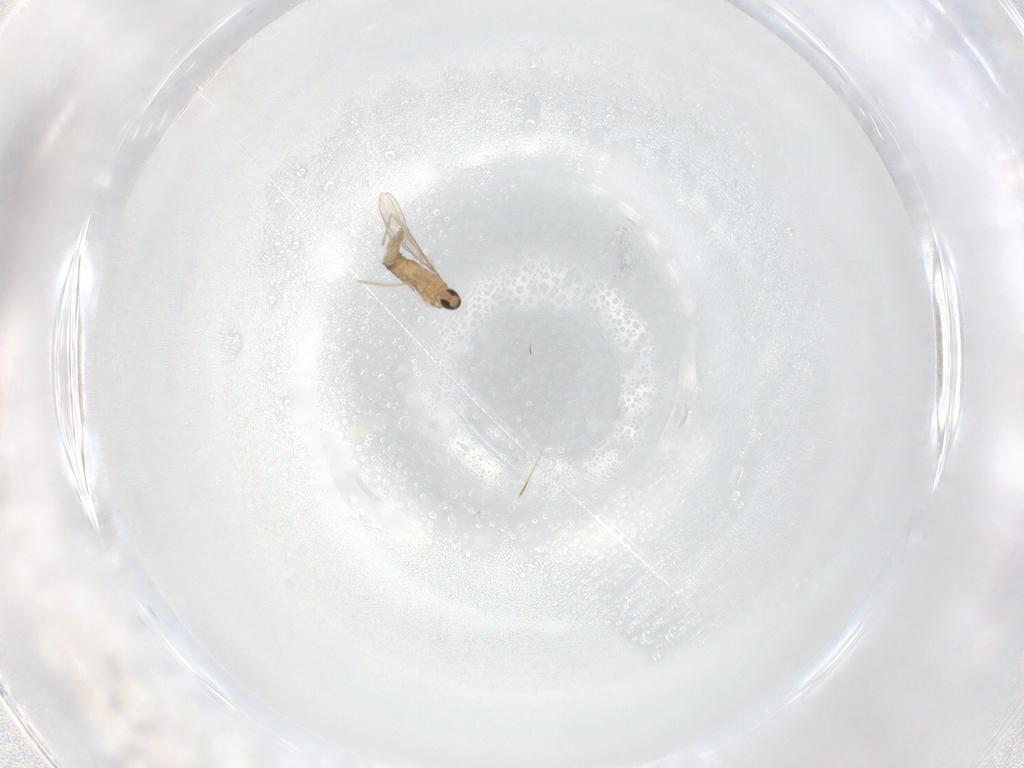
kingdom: Animalia
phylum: Arthropoda
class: Insecta
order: Diptera
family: Cecidomyiidae
